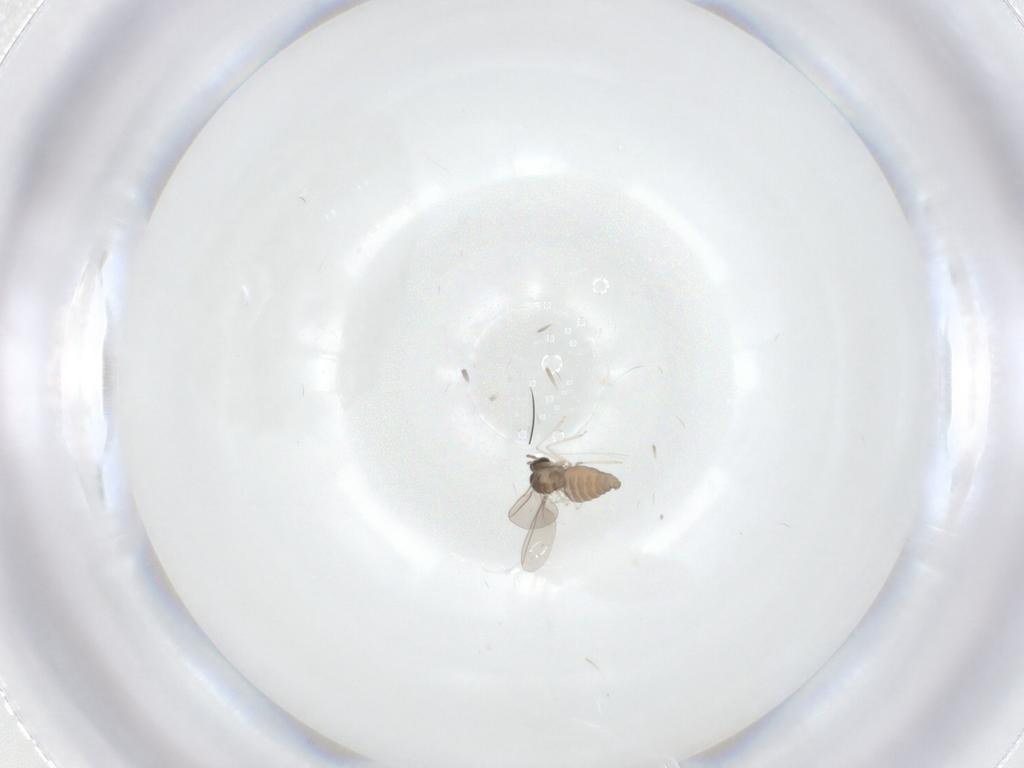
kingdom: Animalia
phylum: Arthropoda
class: Insecta
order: Diptera
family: Cecidomyiidae
